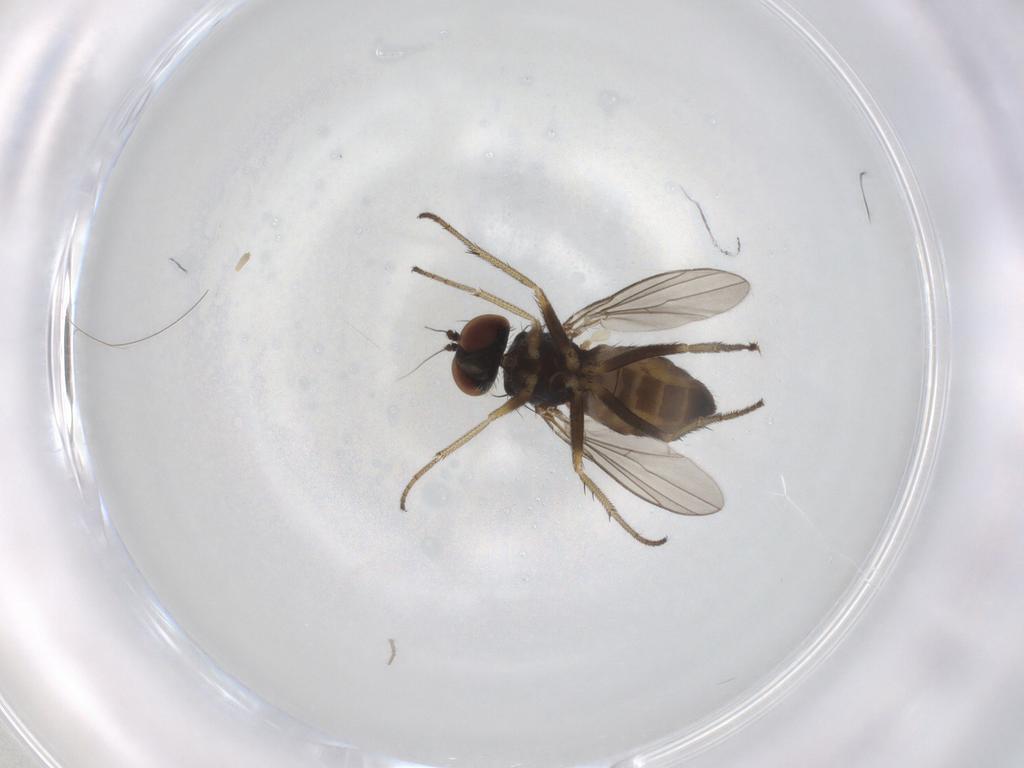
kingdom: Animalia
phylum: Arthropoda
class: Insecta
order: Diptera
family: Dolichopodidae
